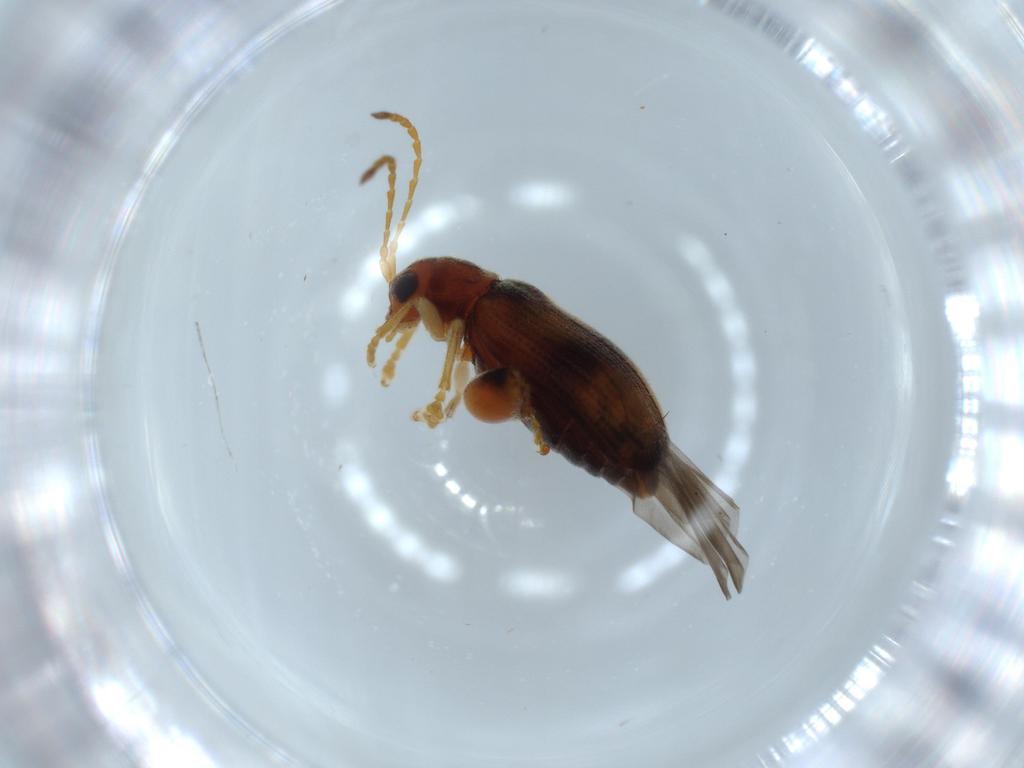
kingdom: Animalia
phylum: Arthropoda
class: Insecta
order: Coleoptera
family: Chrysomelidae
